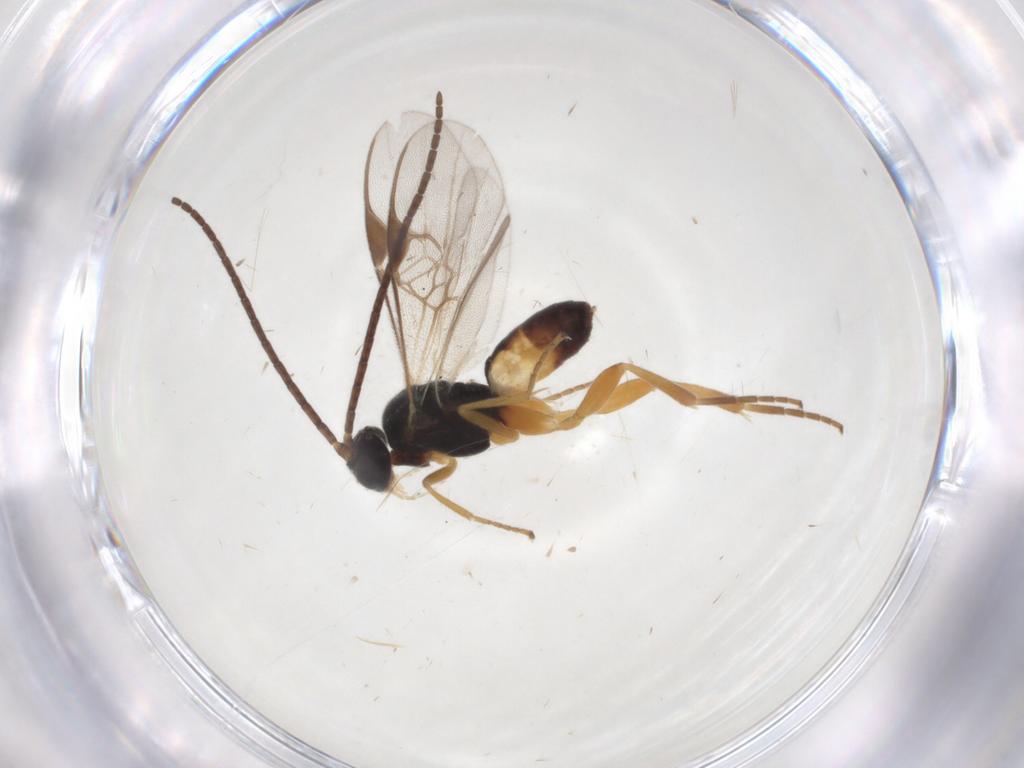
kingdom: Animalia
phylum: Arthropoda
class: Insecta
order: Hymenoptera
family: Braconidae
